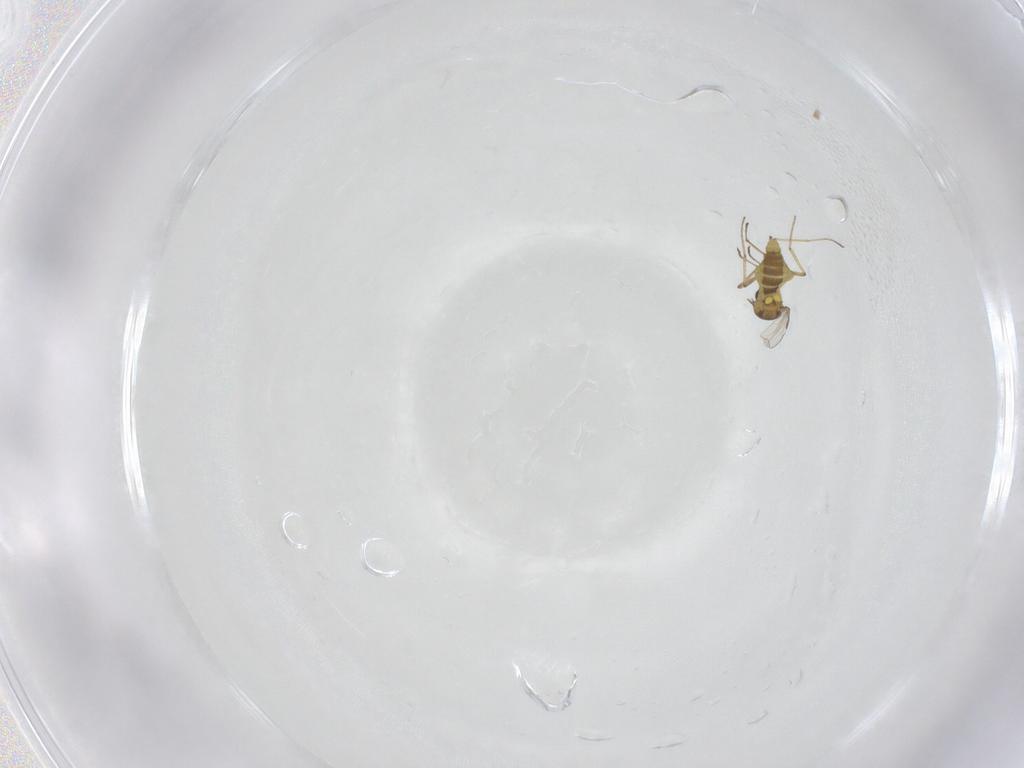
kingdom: Animalia
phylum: Arthropoda
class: Insecta
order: Diptera
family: Ceratopogonidae
